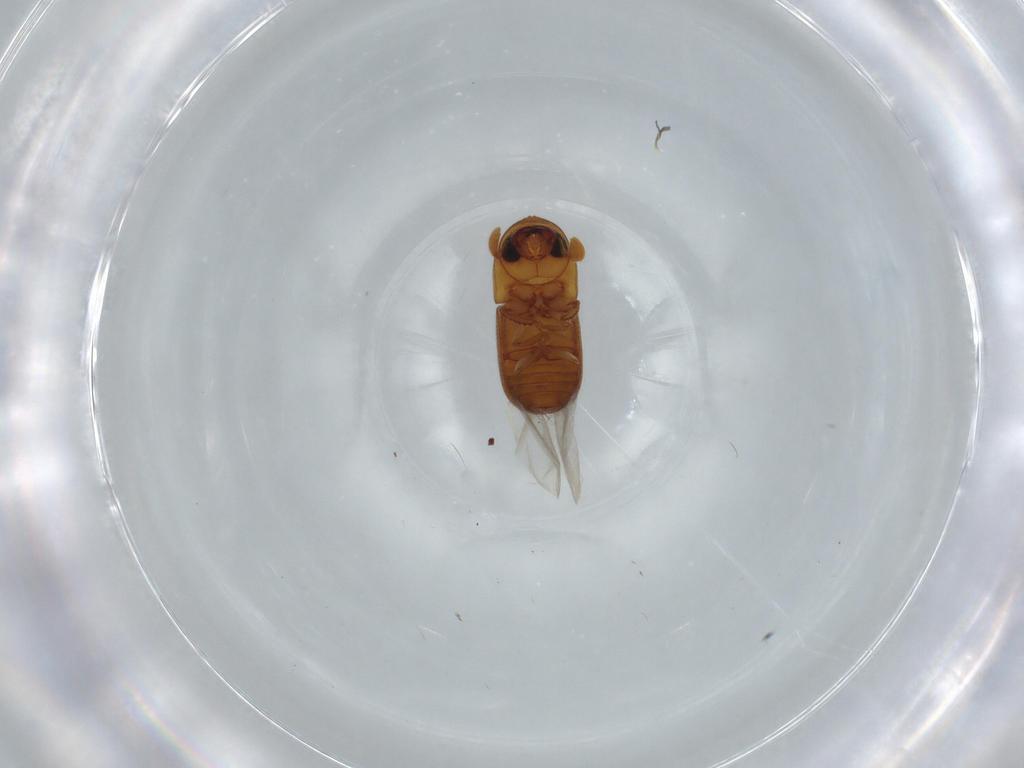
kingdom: Animalia
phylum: Arthropoda
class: Insecta
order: Coleoptera
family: Curculionidae
